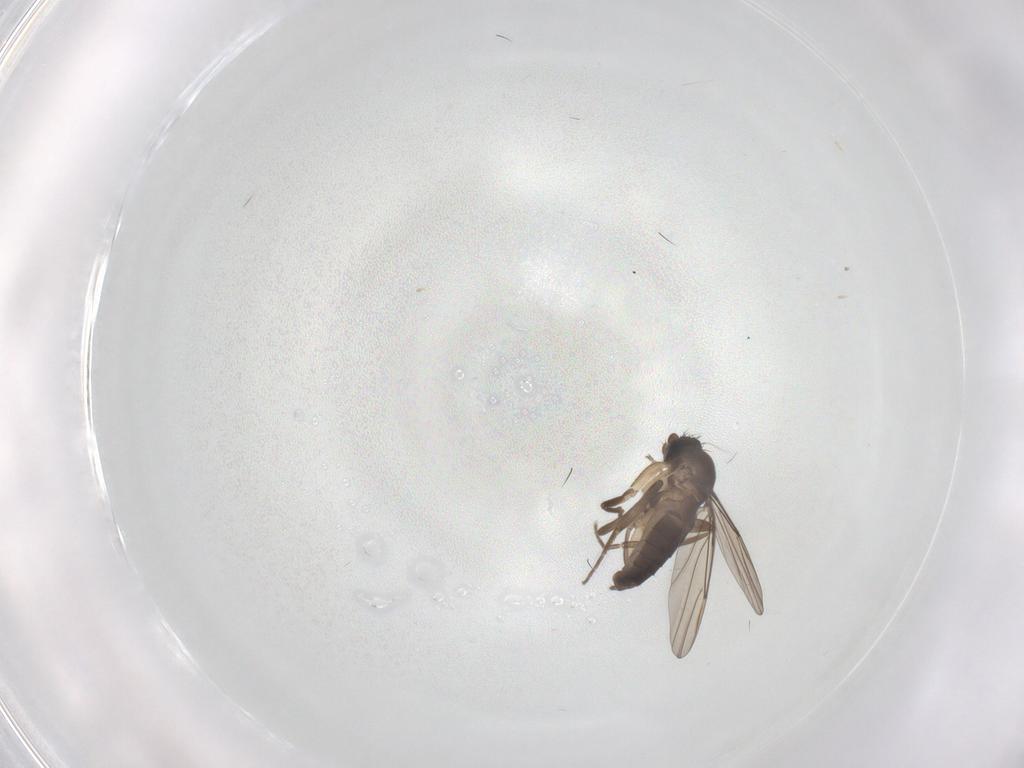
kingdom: Animalia
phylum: Arthropoda
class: Insecta
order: Diptera
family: Phoridae
